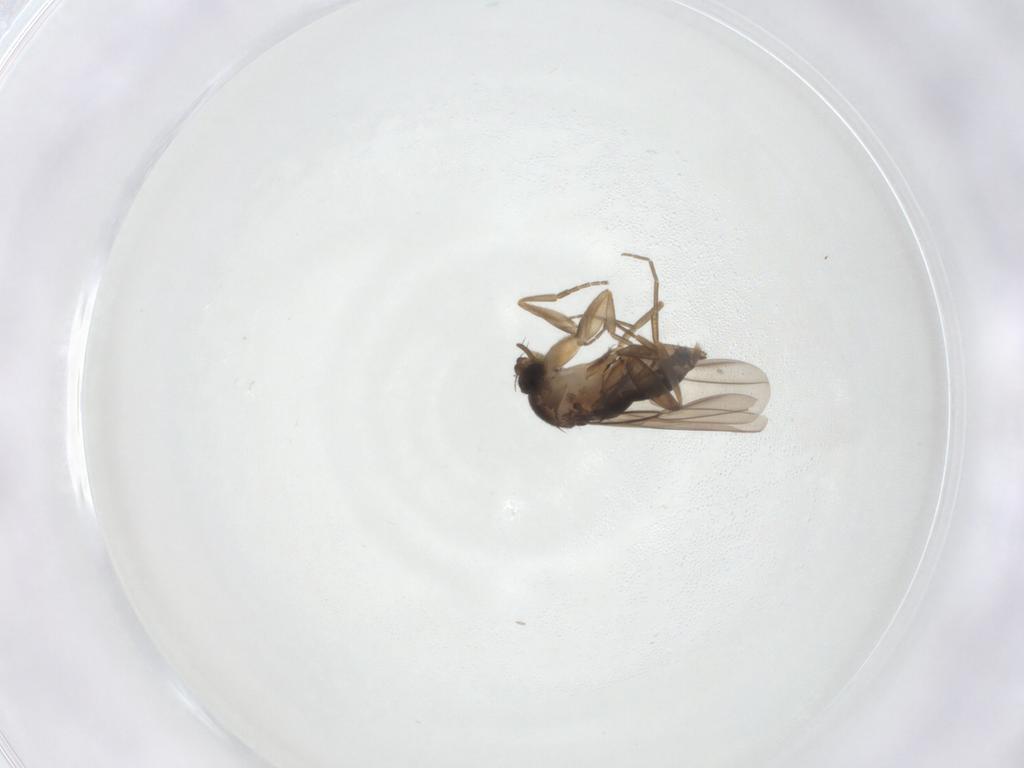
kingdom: Animalia
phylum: Arthropoda
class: Insecta
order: Diptera
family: Phoridae
